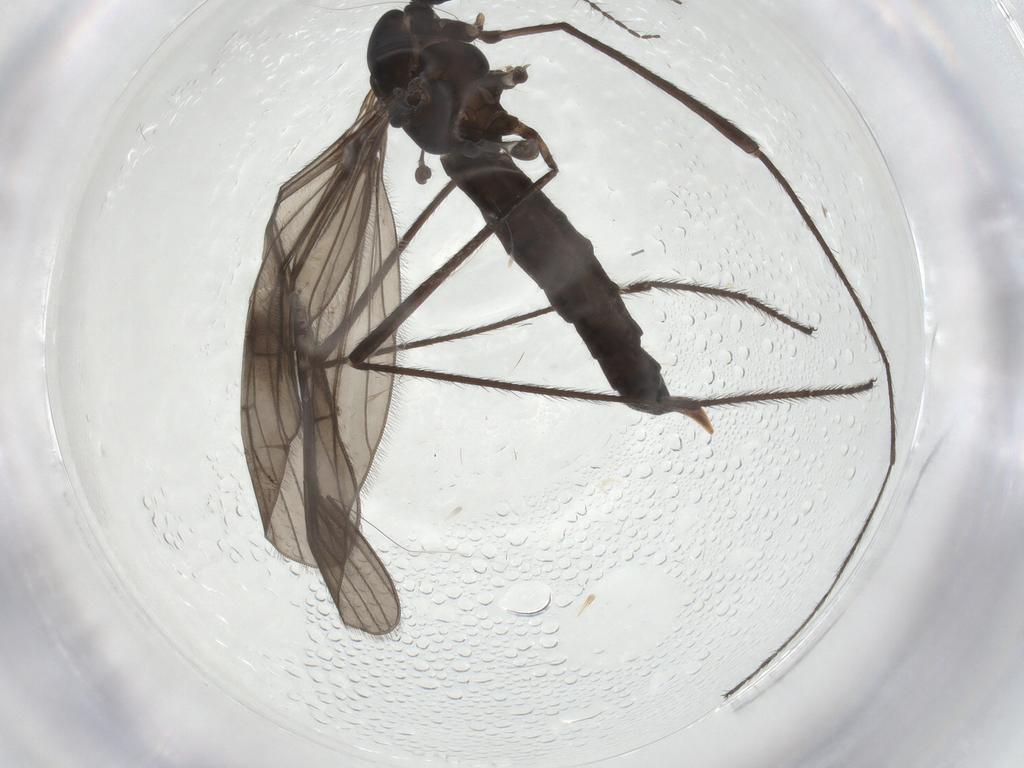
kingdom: Animalia
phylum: Arthropoda
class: Insecta
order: Diptera
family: Limoniidae
